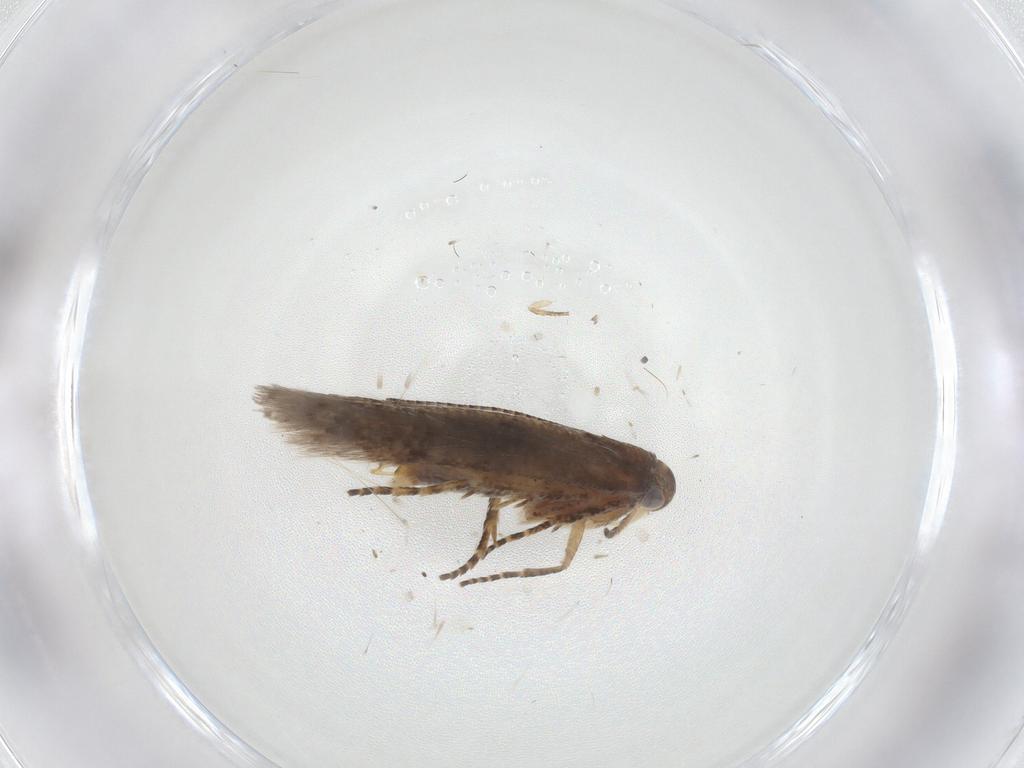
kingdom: Animalia
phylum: Arthropoda
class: Insecta
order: Lepidoptera
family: Gelechiidae
